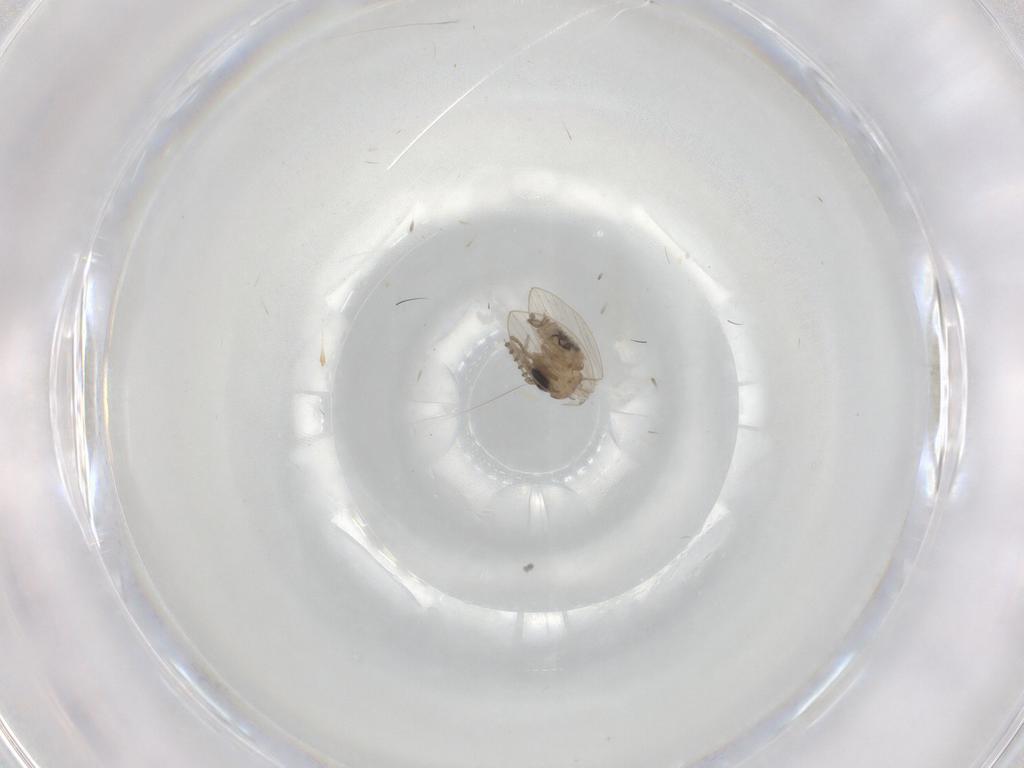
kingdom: Animalia
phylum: Arthropoda
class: Insecta
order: Diptera
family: Psychodidae
